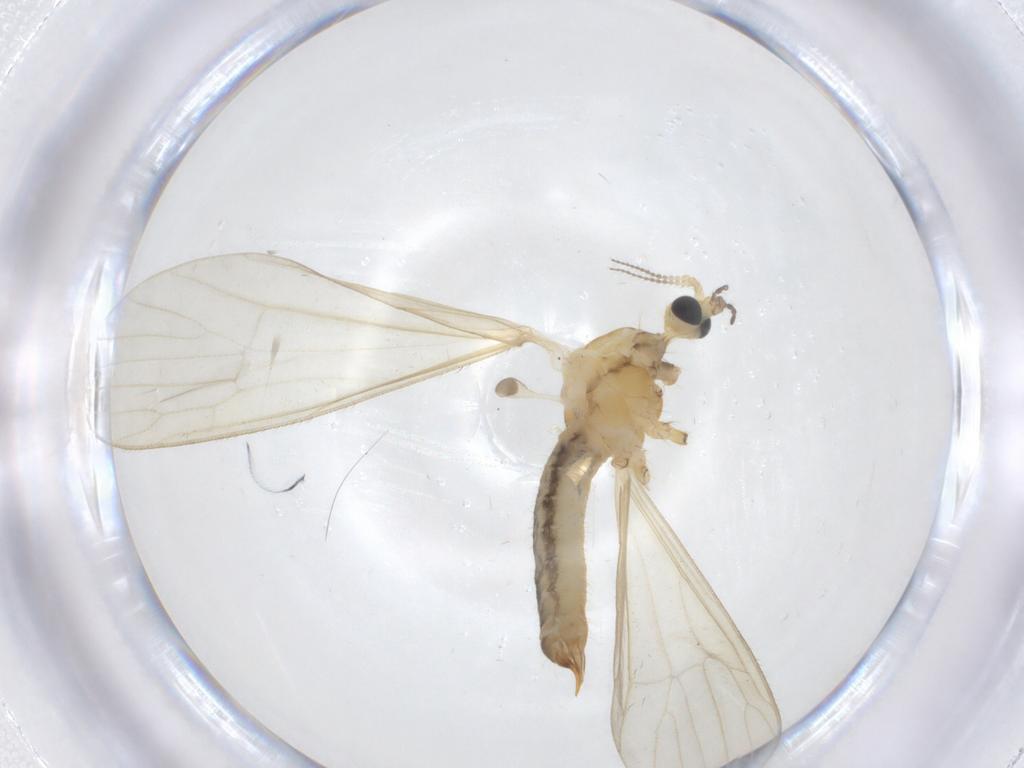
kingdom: Animalia
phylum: Arthropoda
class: Insecta
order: Diptera
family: Limoniidae
